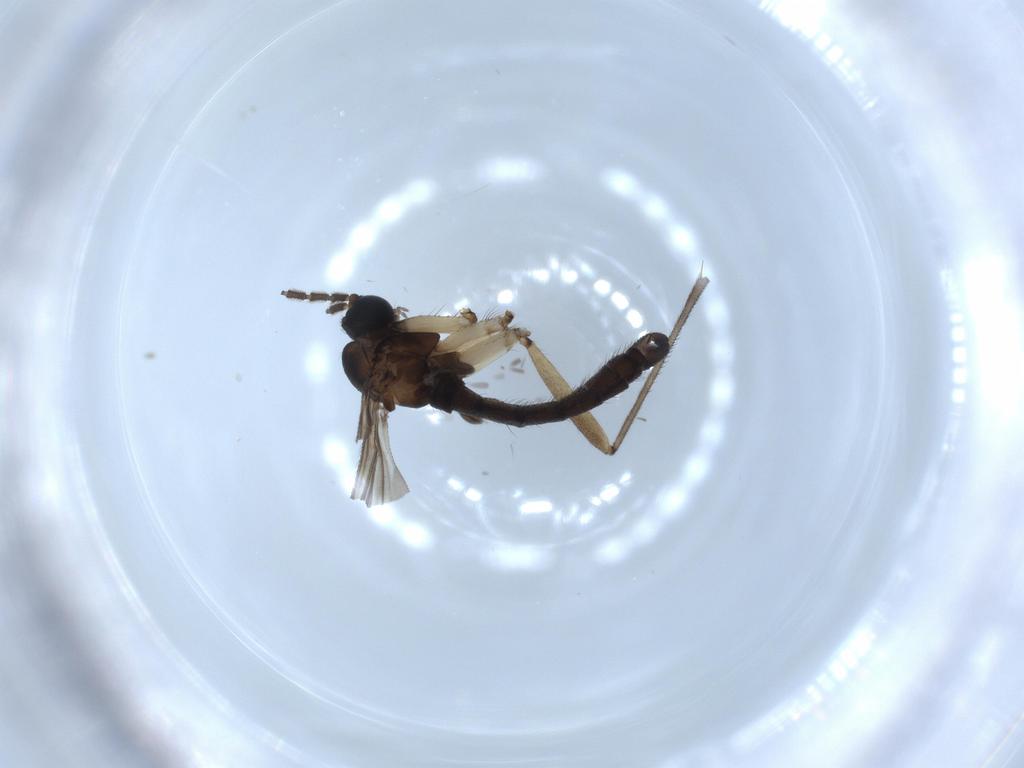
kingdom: Animalia
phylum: Arthropoda
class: Insecta
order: Diptera
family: Sciaridae
